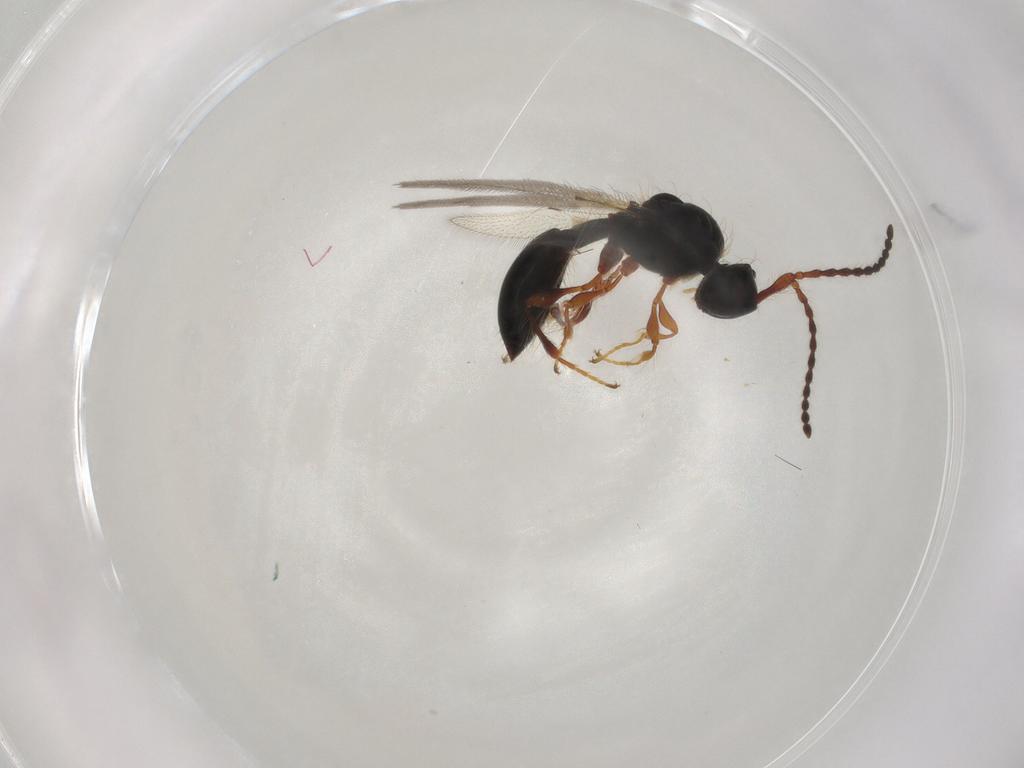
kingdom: Animalia
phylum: Arthropoda
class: Insecta
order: Hymenoptera
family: Diapriidae
